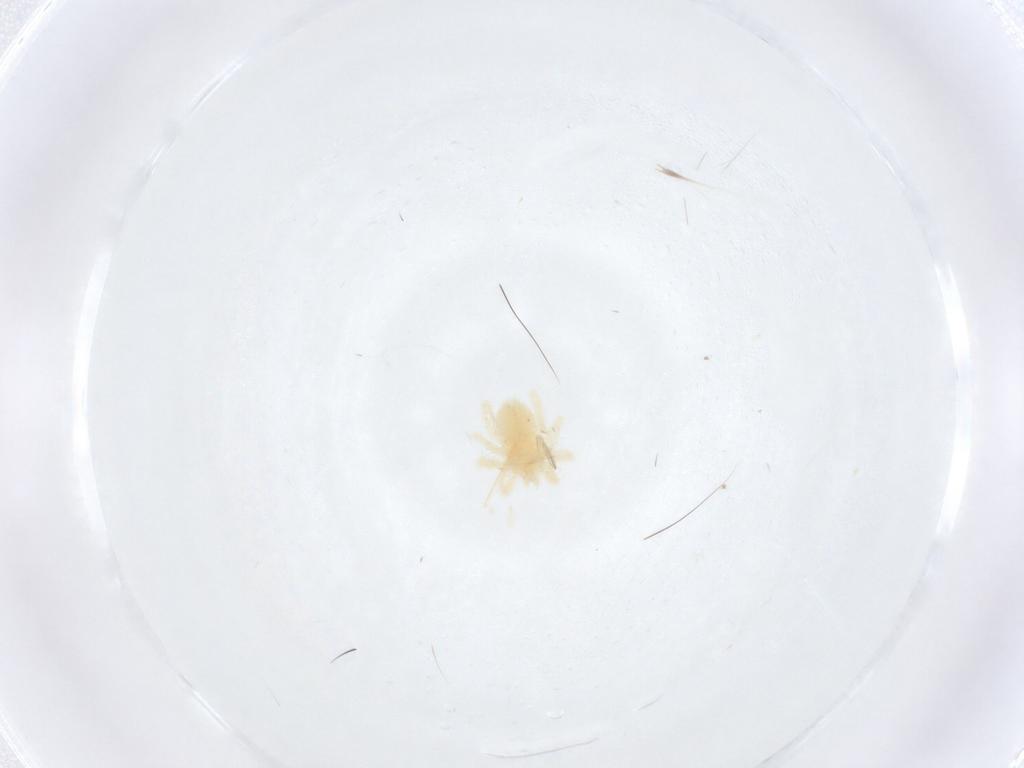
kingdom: Animalia
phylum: Arthropoda
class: Arachnida
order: Trombidiformes
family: Anystidae
